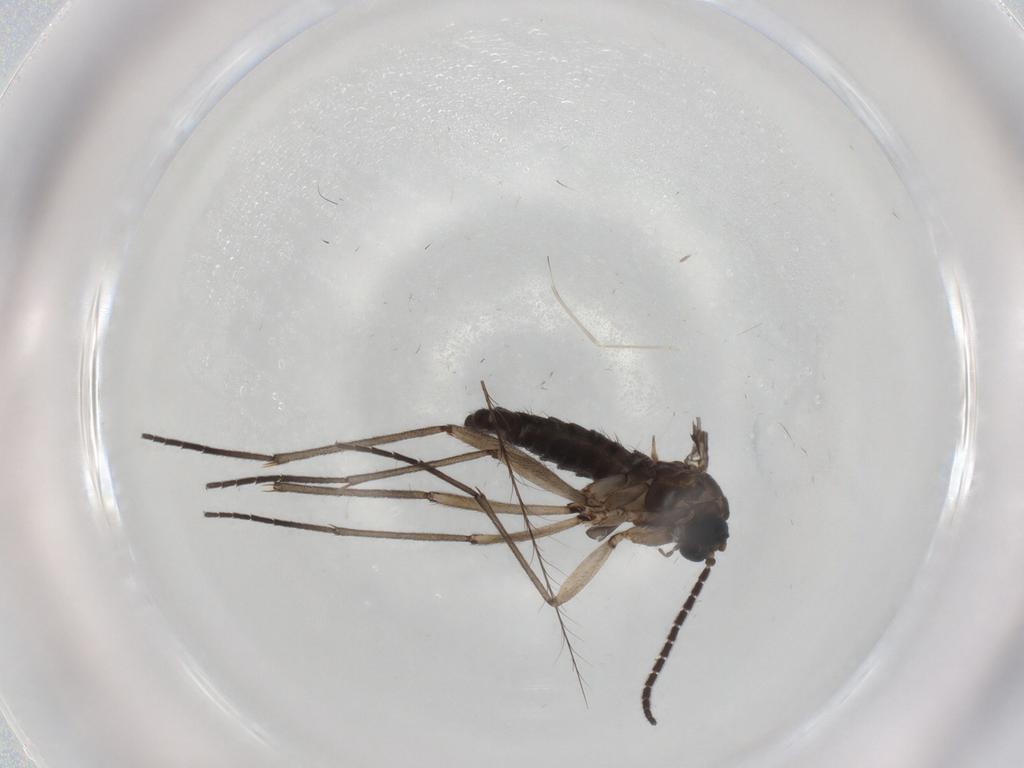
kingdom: Animalia
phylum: Arthropoda
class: Insecta
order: Diptera
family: Sciaridae
